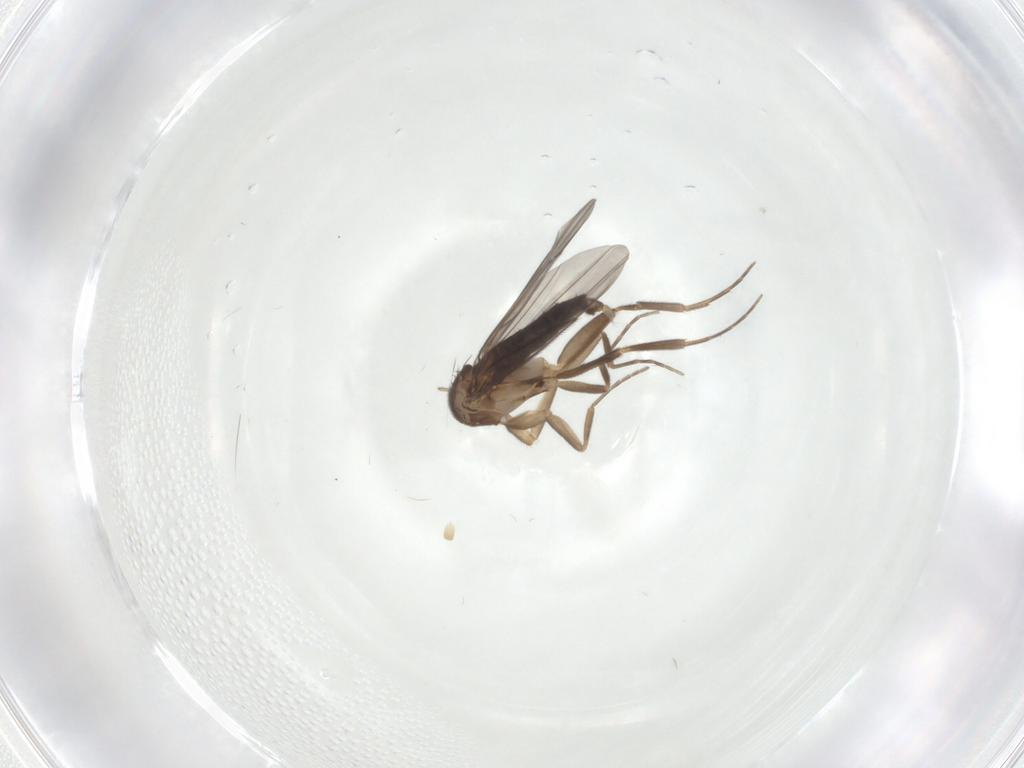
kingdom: Animalia
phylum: Arthropoda
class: Insecta
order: Diptera
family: Phoridae
